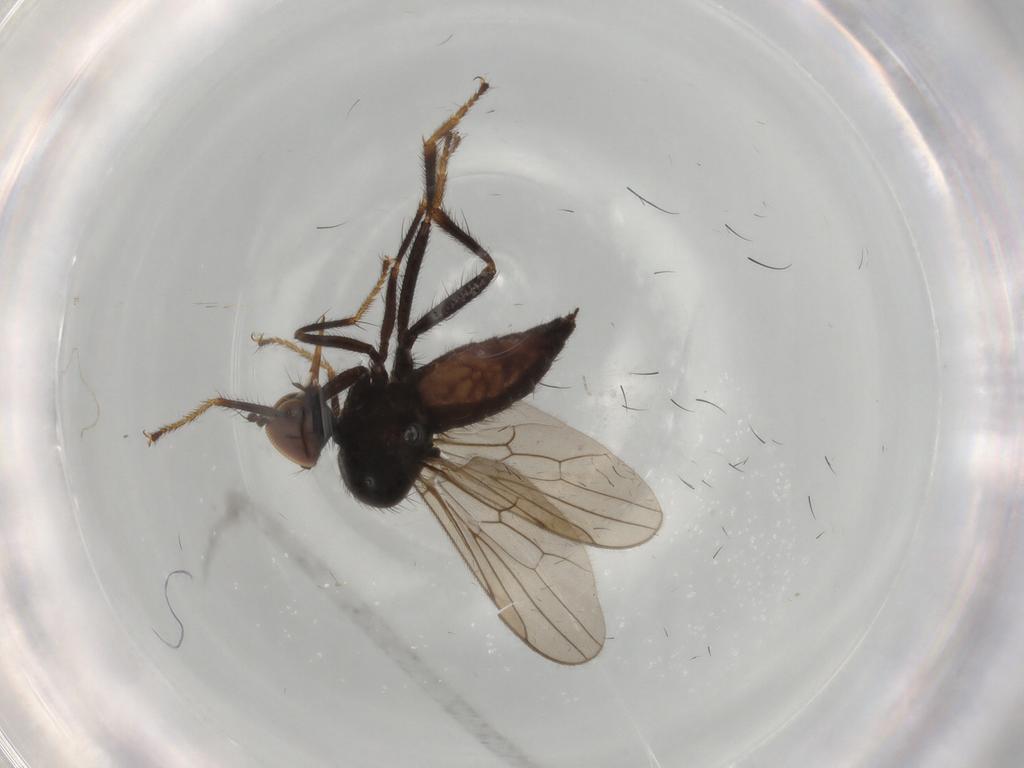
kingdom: Animalia
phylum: Arthropoda
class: Insecta
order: Diptera
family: Hybotidae
